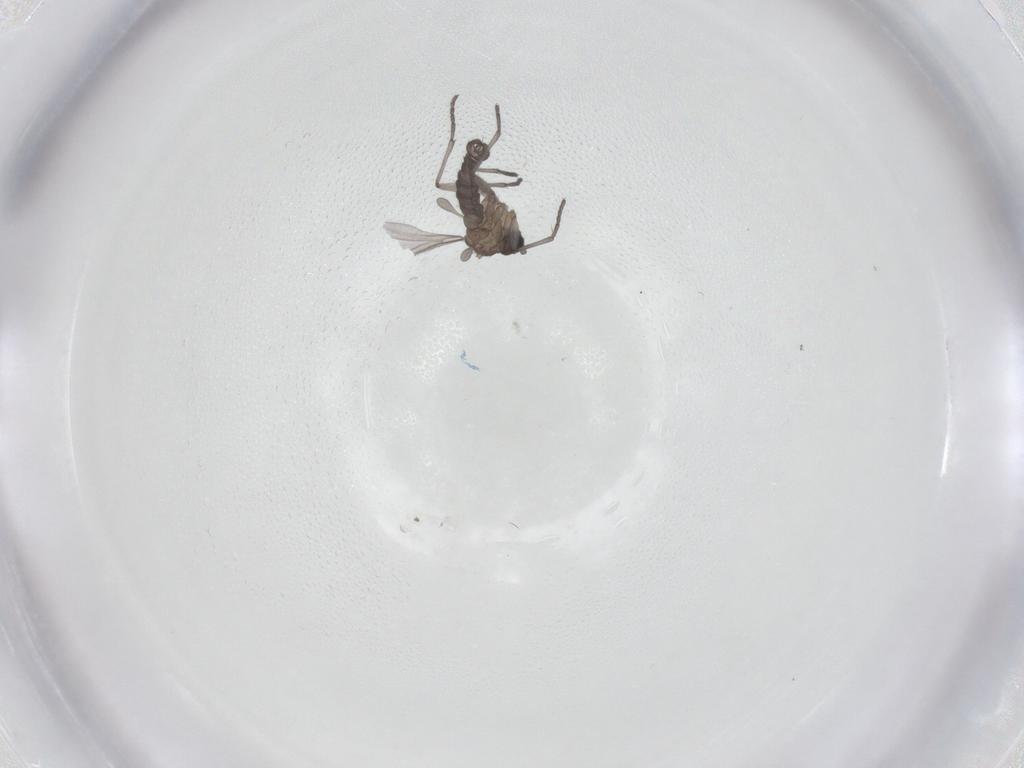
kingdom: Animalia
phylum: Arthropoda
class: Insecta
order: Diptera
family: Sciaridae
